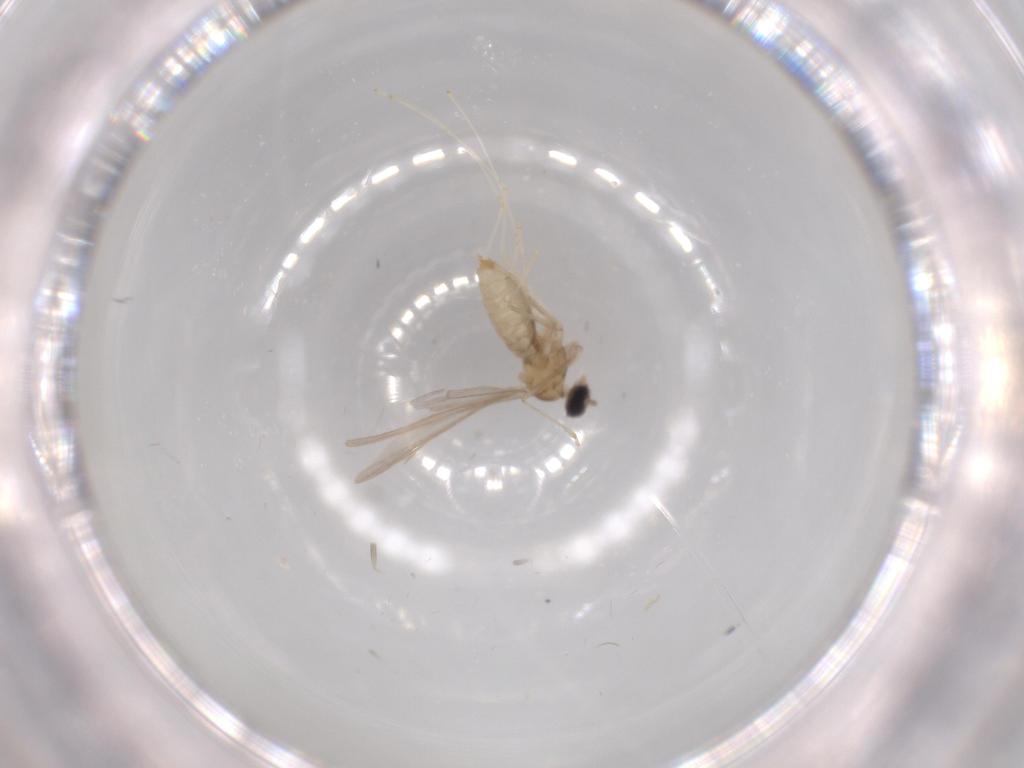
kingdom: Animalia
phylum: Arthropoda
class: Insecta
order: Diptera
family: Cecidomyiidae
